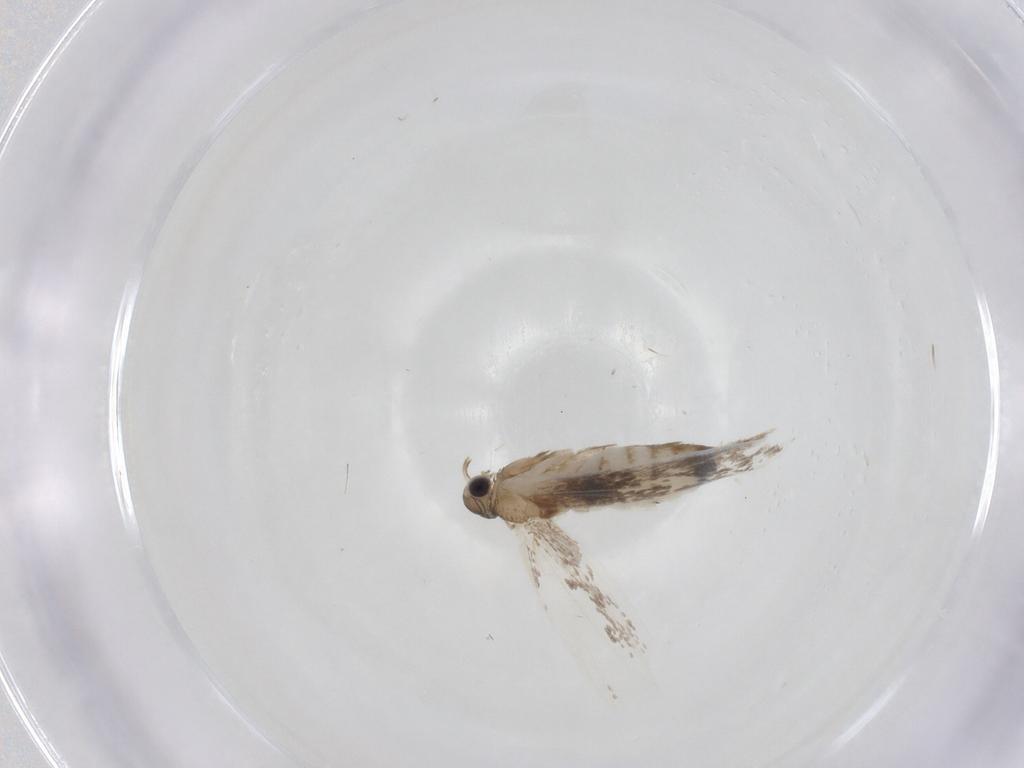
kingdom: Animalia
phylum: Arthropoda
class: Insecta
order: Lepidoptera
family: Dryadaulidae
